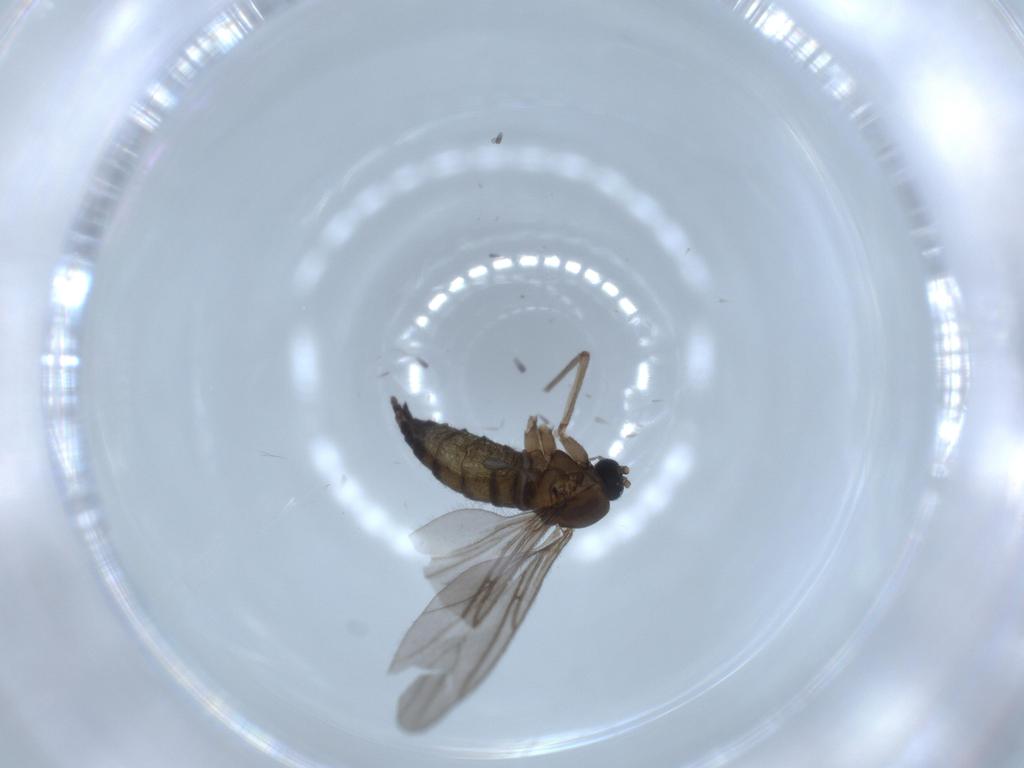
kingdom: Animalia
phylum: Arthropoda
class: Insecta
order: Diptera
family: Sciaridae
